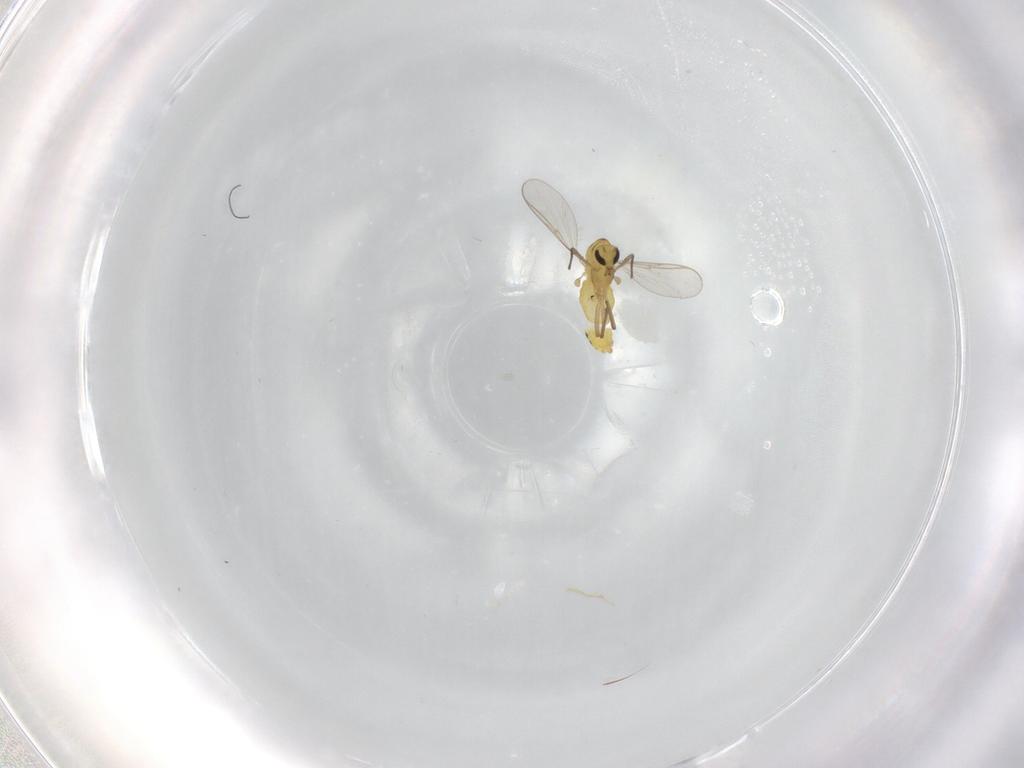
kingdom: Animalia
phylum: Arthropoda
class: Insecta
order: Diptera
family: Chironomidae
